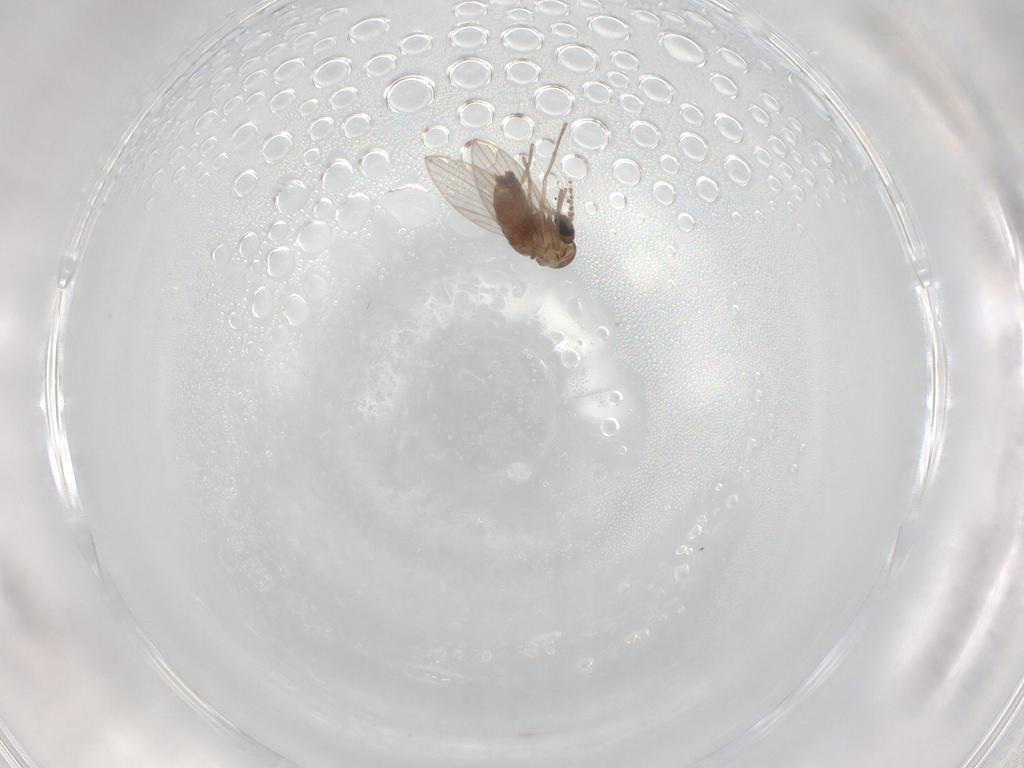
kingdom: Animalia
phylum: Arthropoda
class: Insecta
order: Diptera
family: Psychodidae
